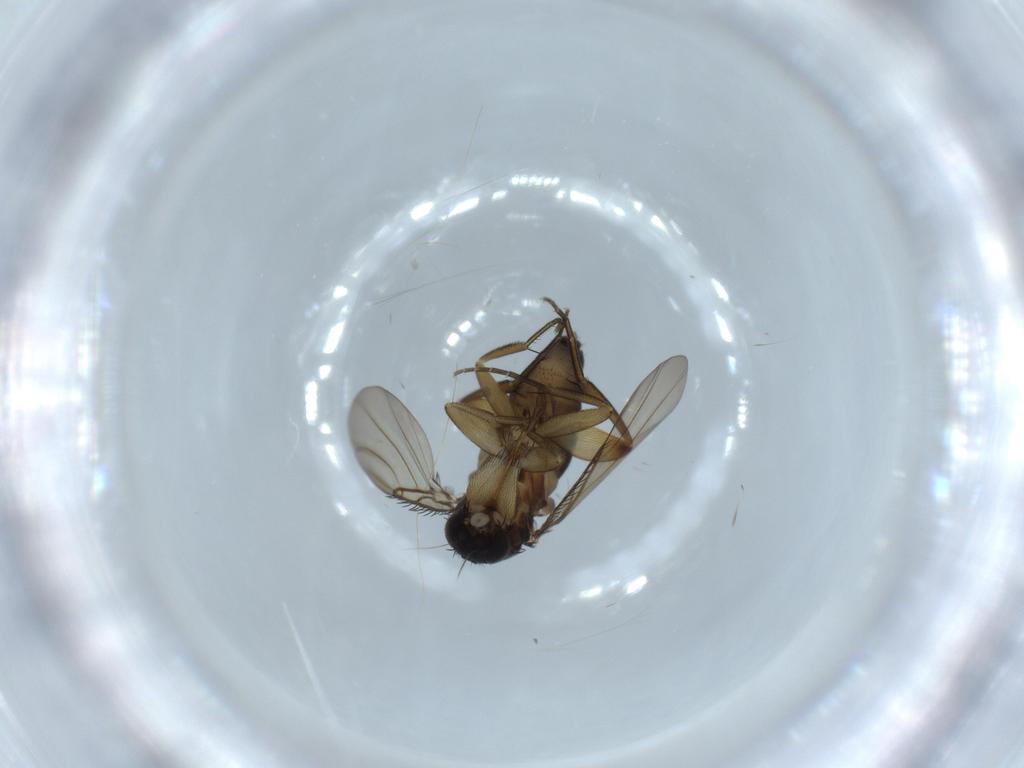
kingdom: Animalia
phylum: Arthropoda
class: Insecta
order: Diptera
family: Phoridae
